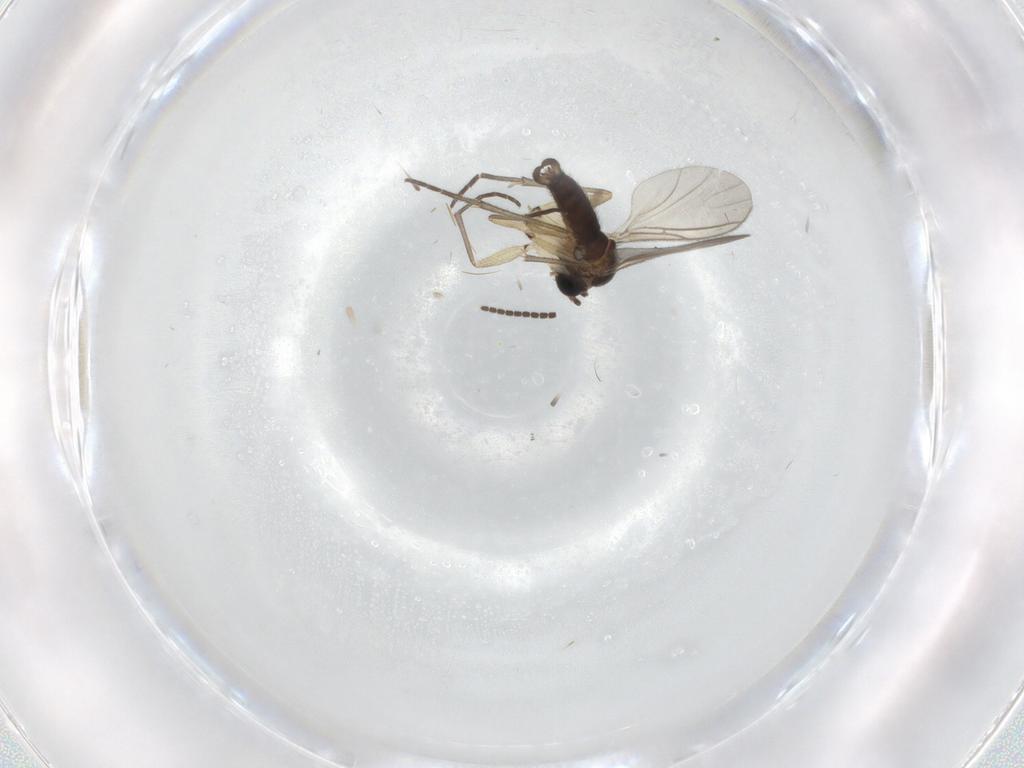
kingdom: Animalia
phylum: Arthropoda
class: Insecta
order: Diptera
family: Sciaridae
